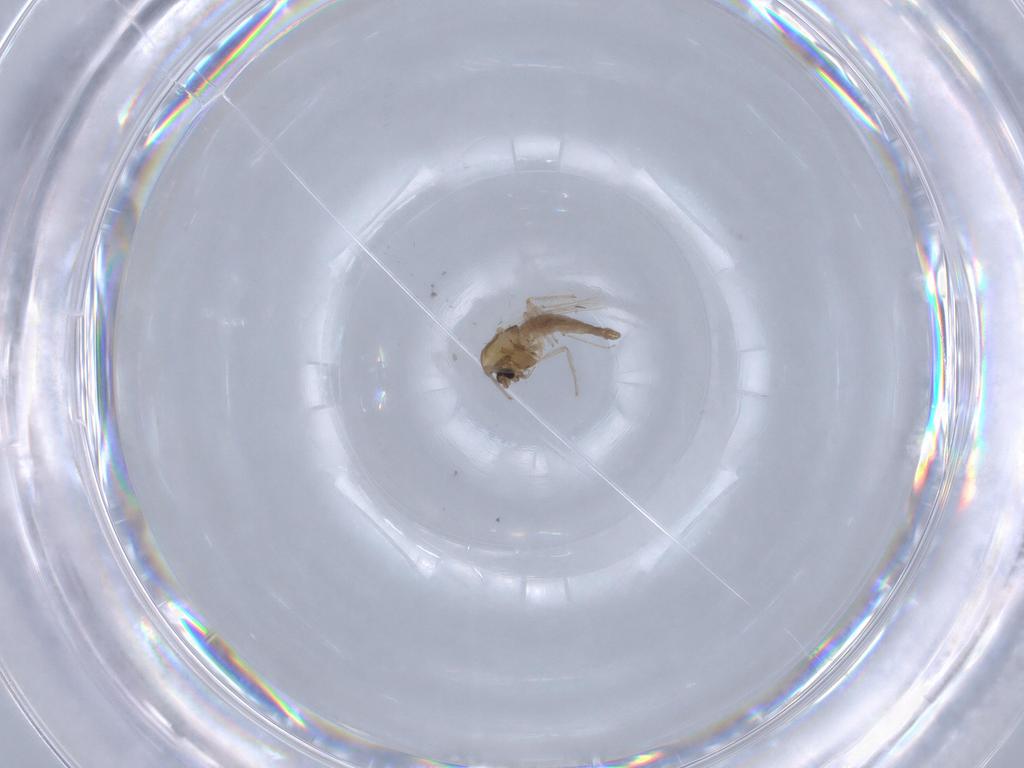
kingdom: Animalia
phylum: Arthropoda
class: Insecta
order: Diptera
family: Chironomidae
